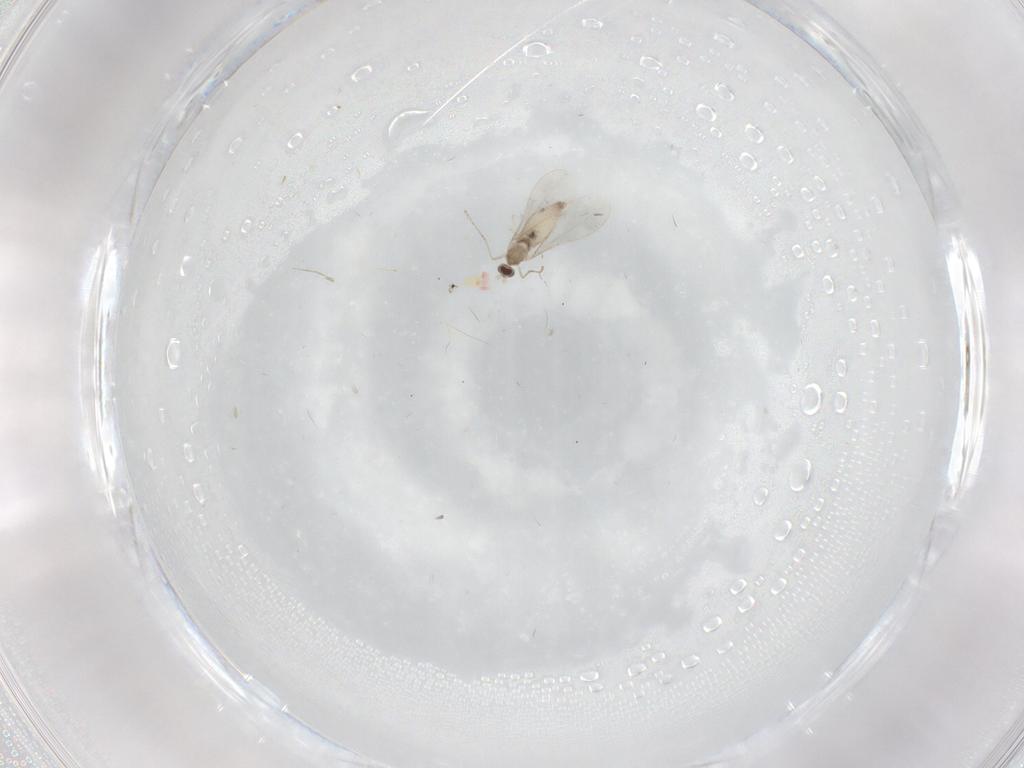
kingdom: Animalia
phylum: Arthropoda
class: Insecta
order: Diptera
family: Cecidomyiidae
